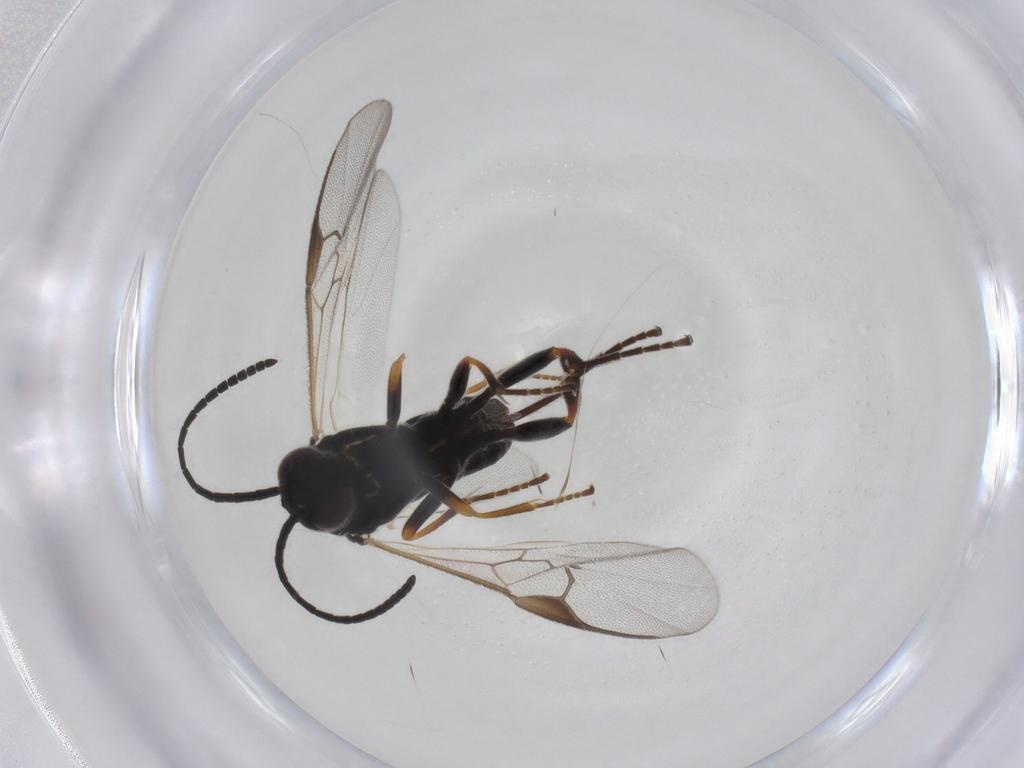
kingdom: Animalia
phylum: Arthropoda
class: Insecta
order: Hymenoptera
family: Braconidae
